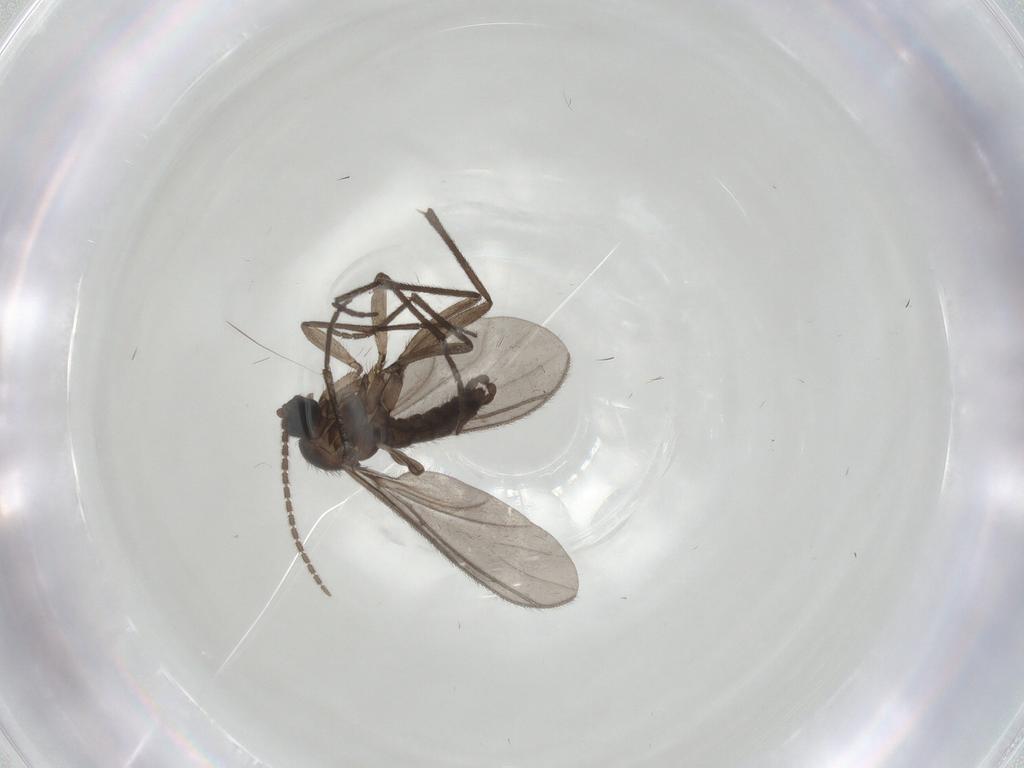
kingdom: Animalia
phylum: Arthropoda
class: Insecta
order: Diptera
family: Sciaridae
